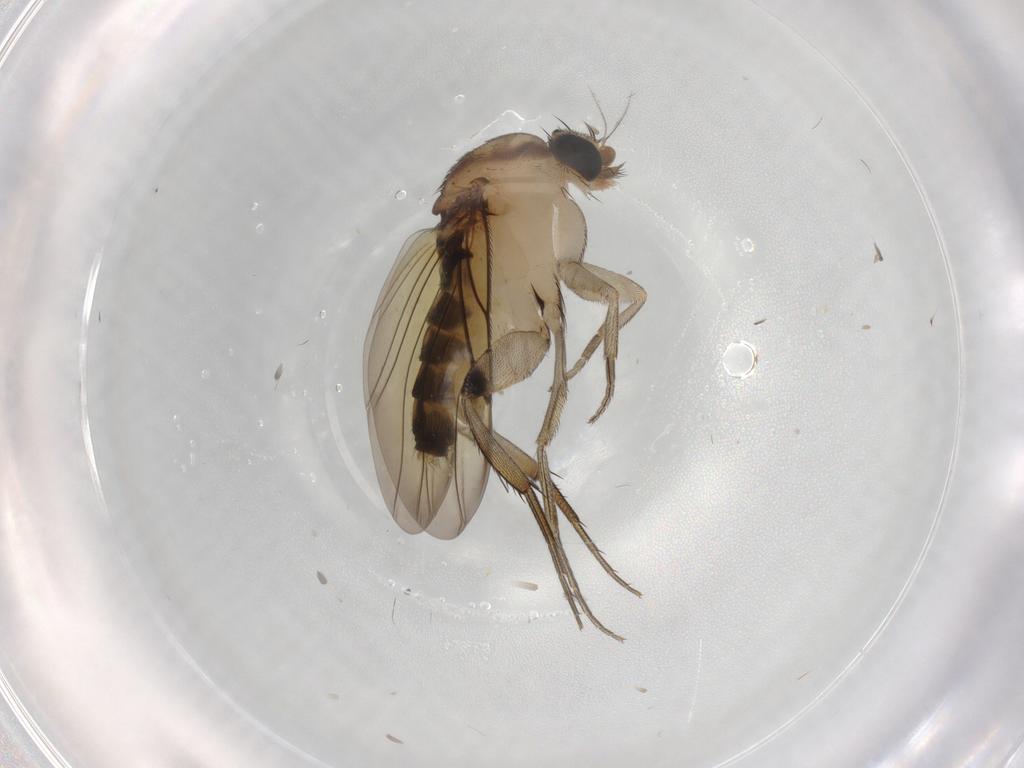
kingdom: Animalia
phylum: Arthropoda
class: Insecta
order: Diptera
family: Phoridae
